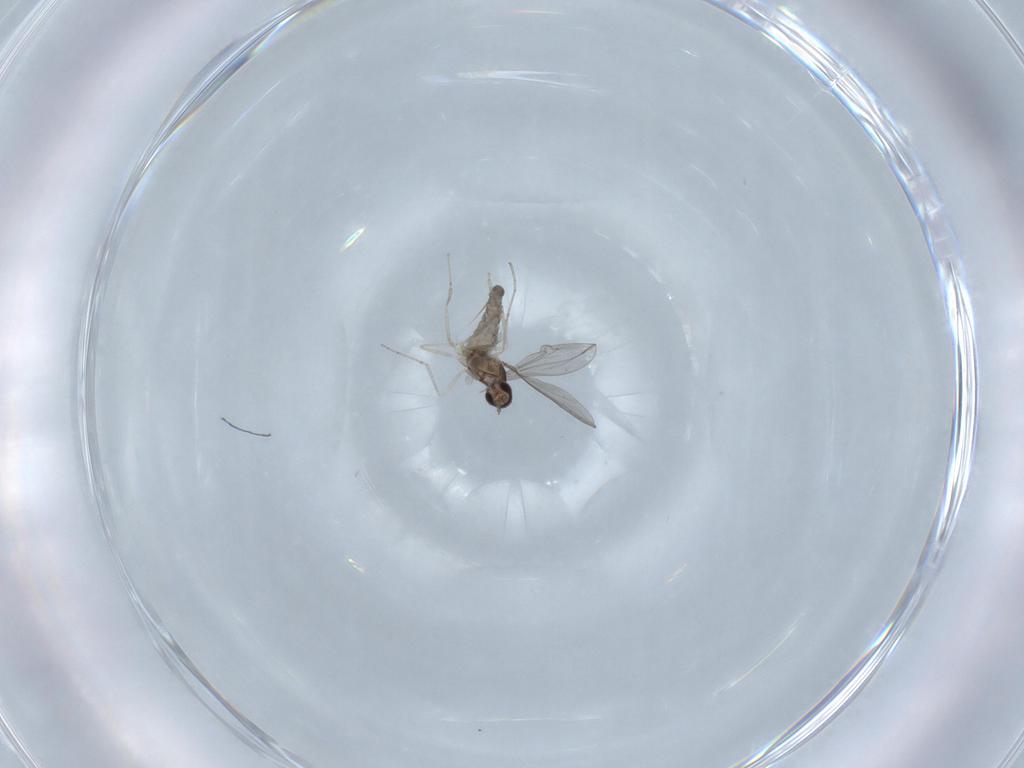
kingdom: Animalia
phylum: Arthropoda
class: Insecta
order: Diptera
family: Cecidomyiidae
